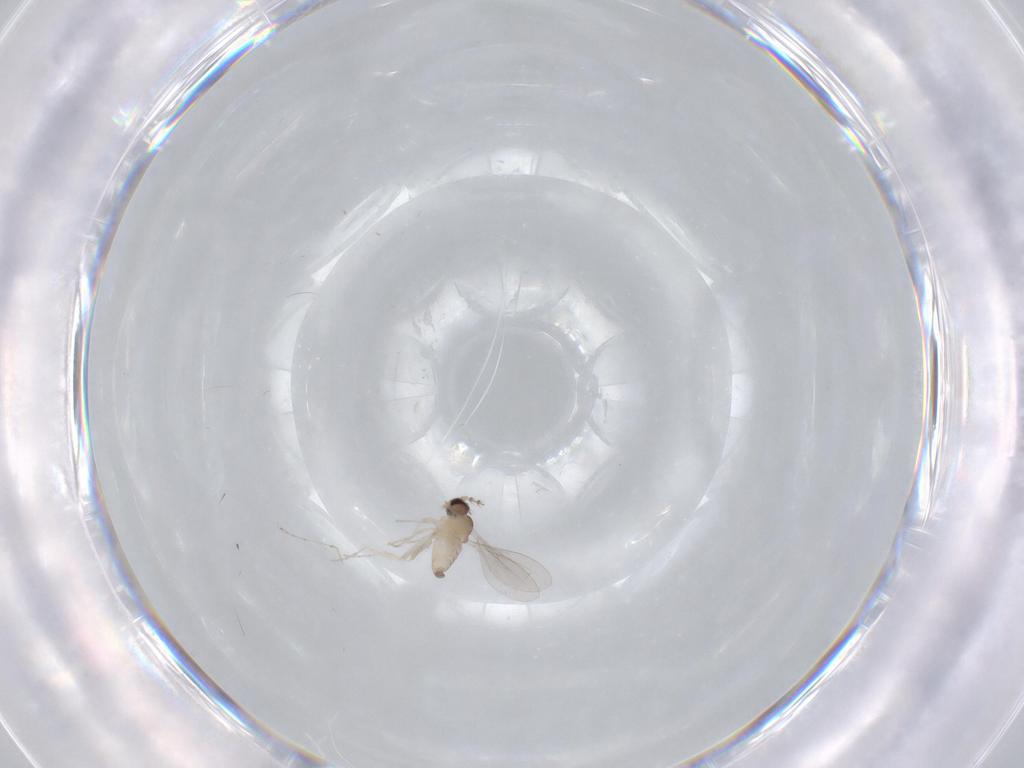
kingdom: Animalia
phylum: Arthropoda
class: Insecta
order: Diptera
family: Cecidomyiidae
